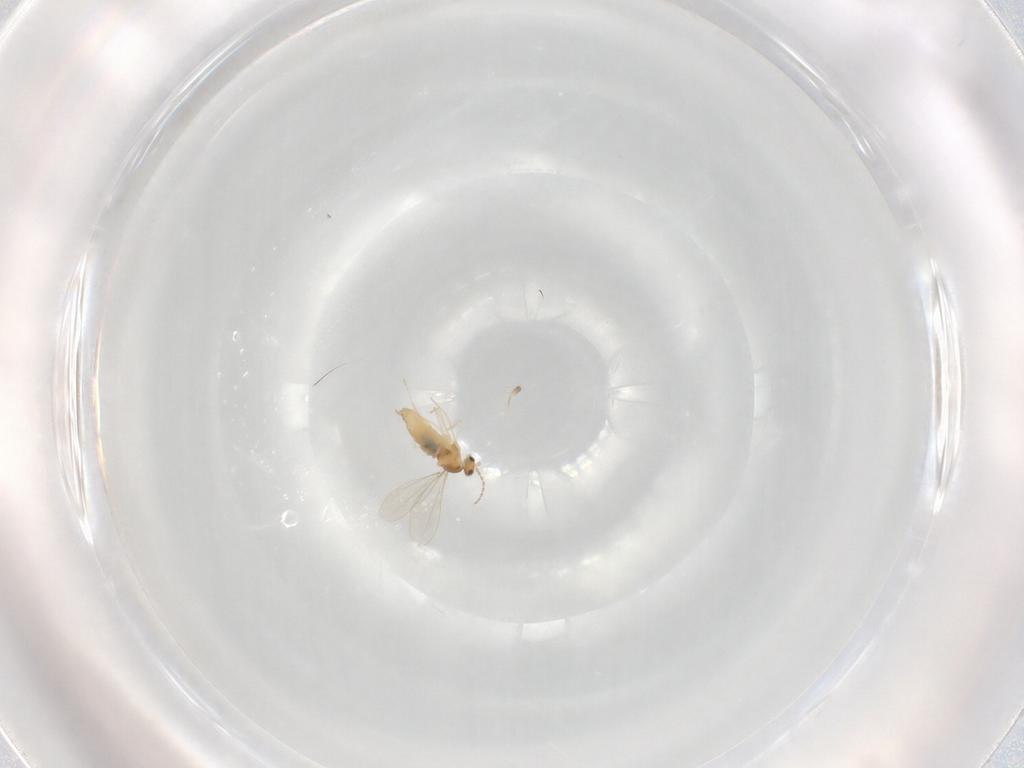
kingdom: Animalia
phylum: Arthropoda
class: Insecta
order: Diptera
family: Cecidomyiidae
